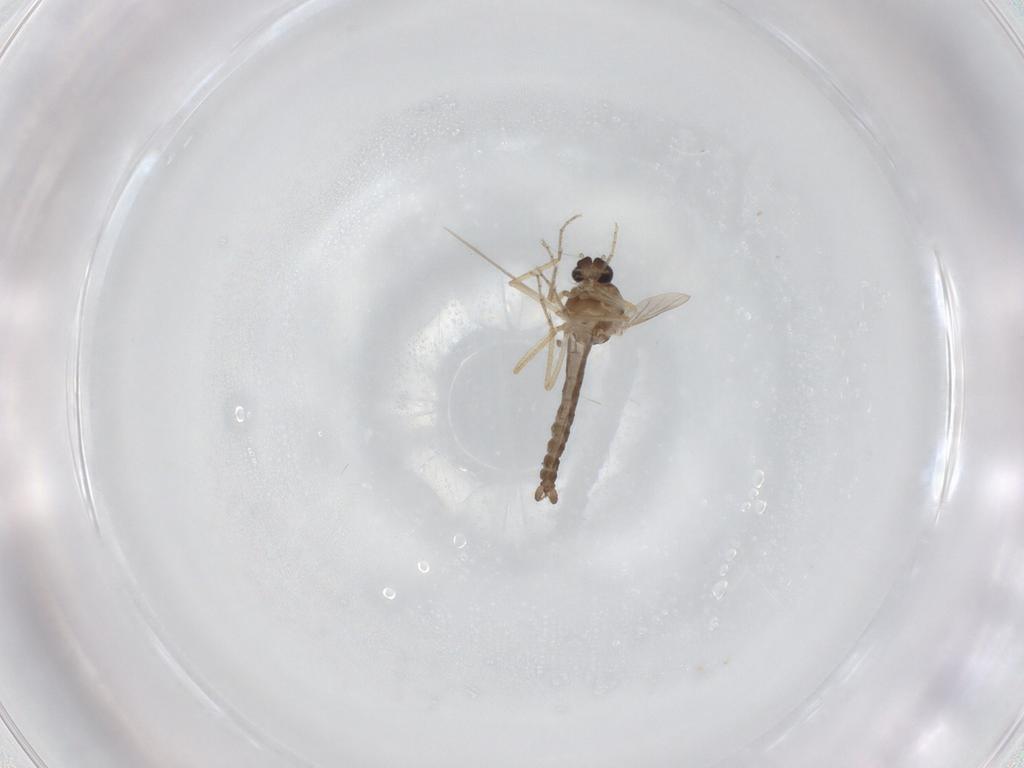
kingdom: Animalia
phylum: Arthropoda
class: Insecta
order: Diptera
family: Ceratopogonidae
